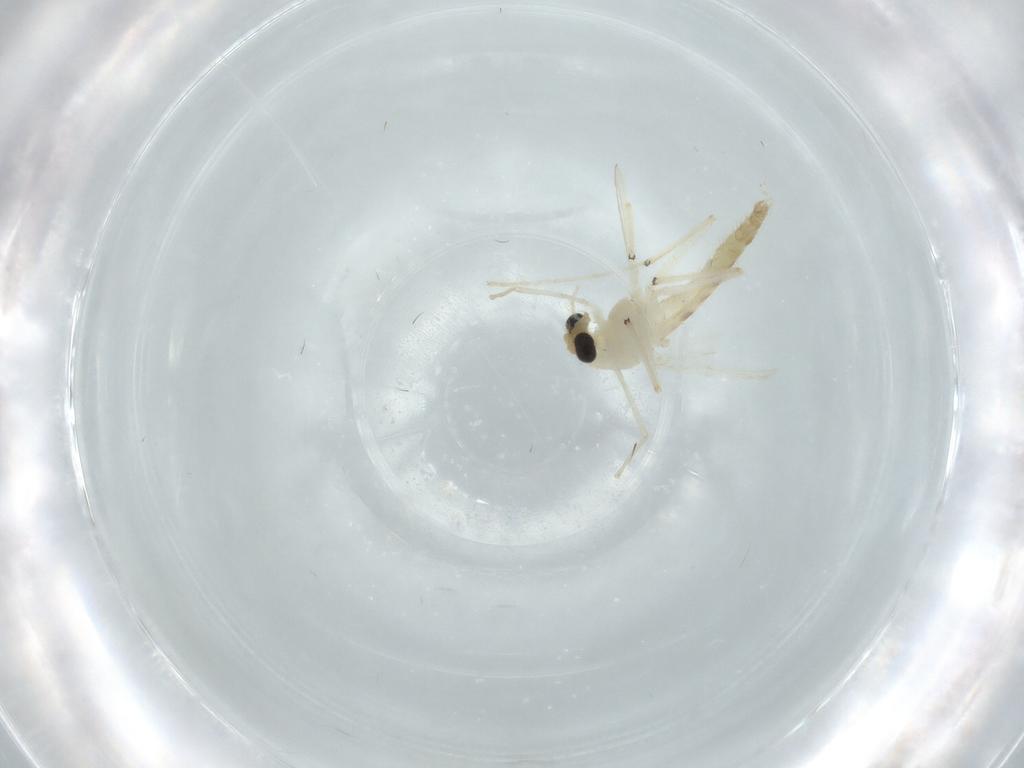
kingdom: Animalia
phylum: Arthropoda
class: Insecta
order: Diptera
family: Chironomidae
